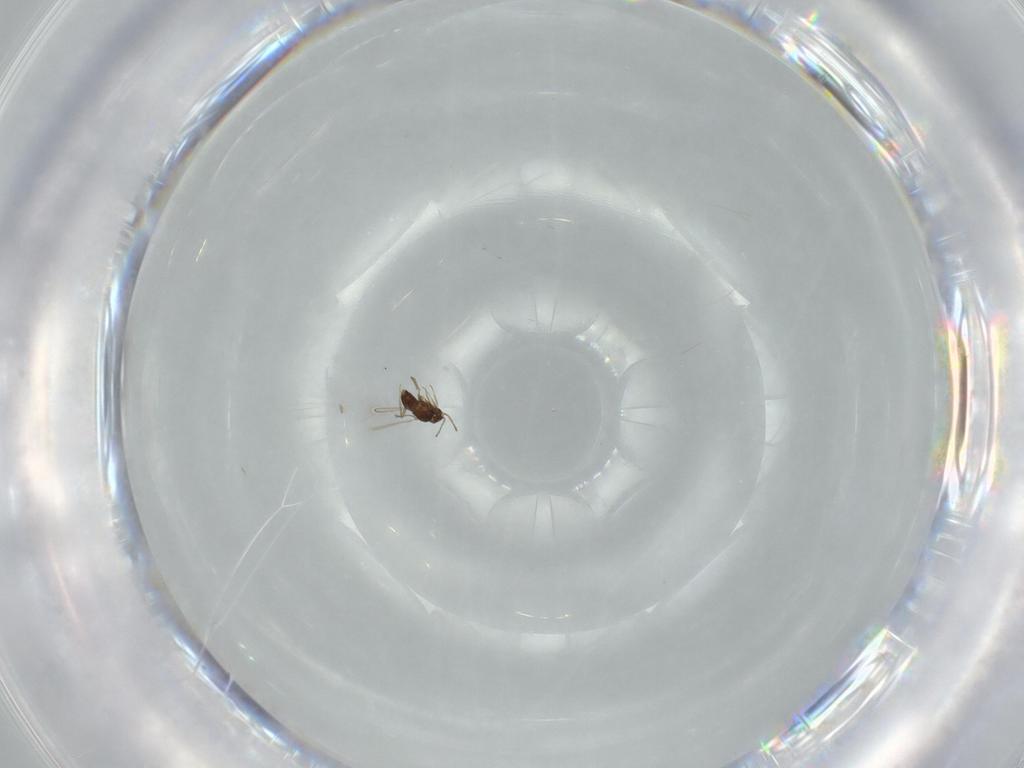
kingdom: Animalia
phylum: Arthropoda
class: Insecta
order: Hymenoptera
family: Mymaridae
